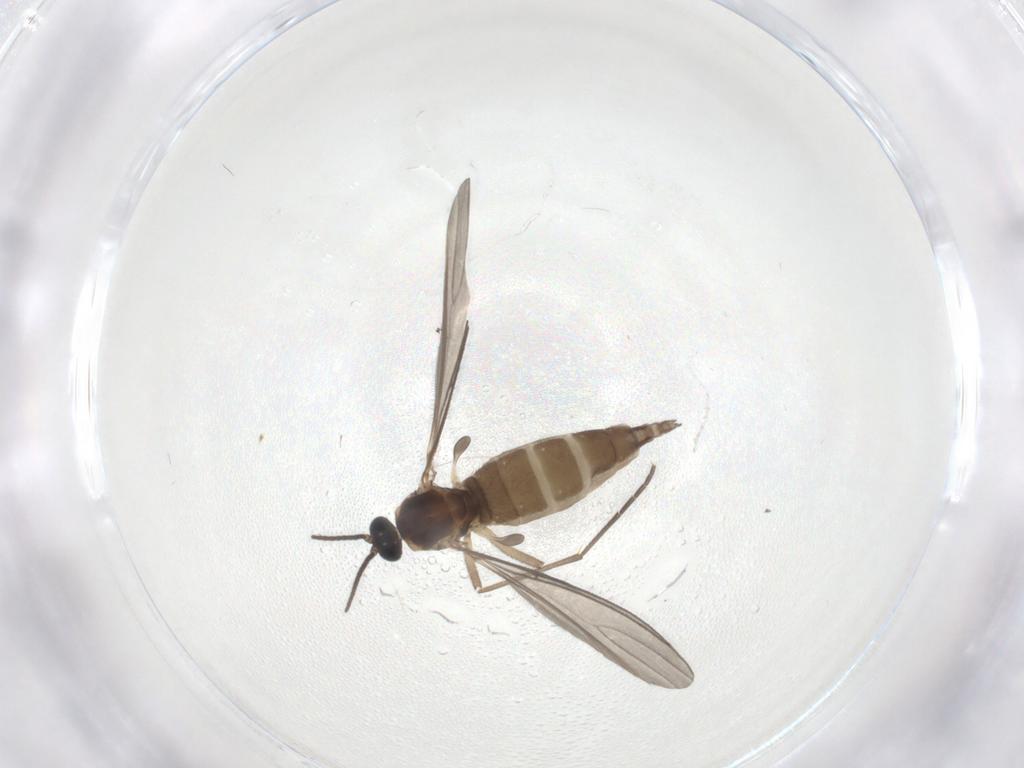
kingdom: Animalia
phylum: Arthropoda
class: Insecta
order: Diptera
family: Sciaridae
